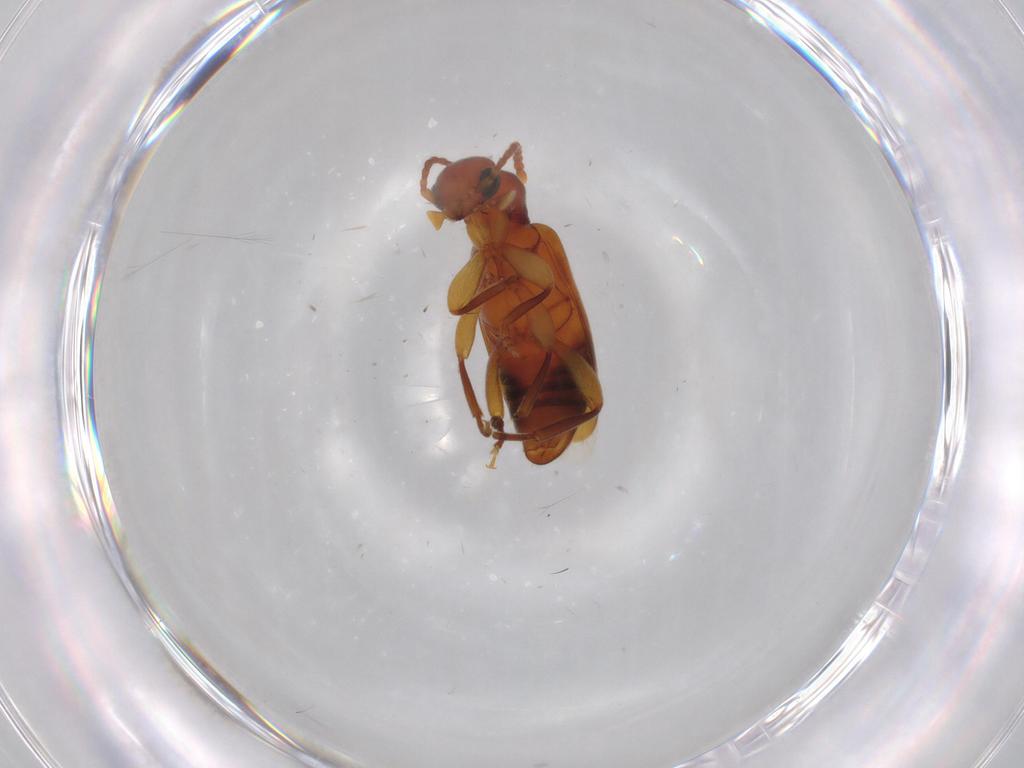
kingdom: Animalia
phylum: Arthropoda
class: Insecta
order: Coleoptera
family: Anthicidae
